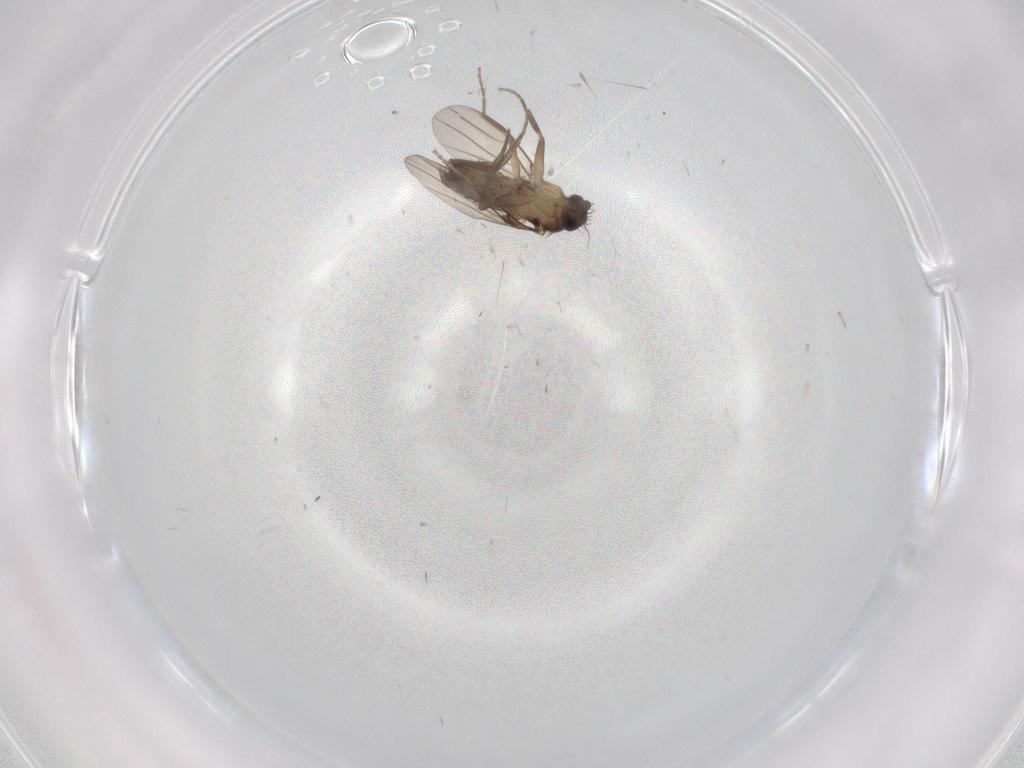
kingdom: Animalia
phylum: Arthropoda
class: Insecta
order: Diptera
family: Phoridae
